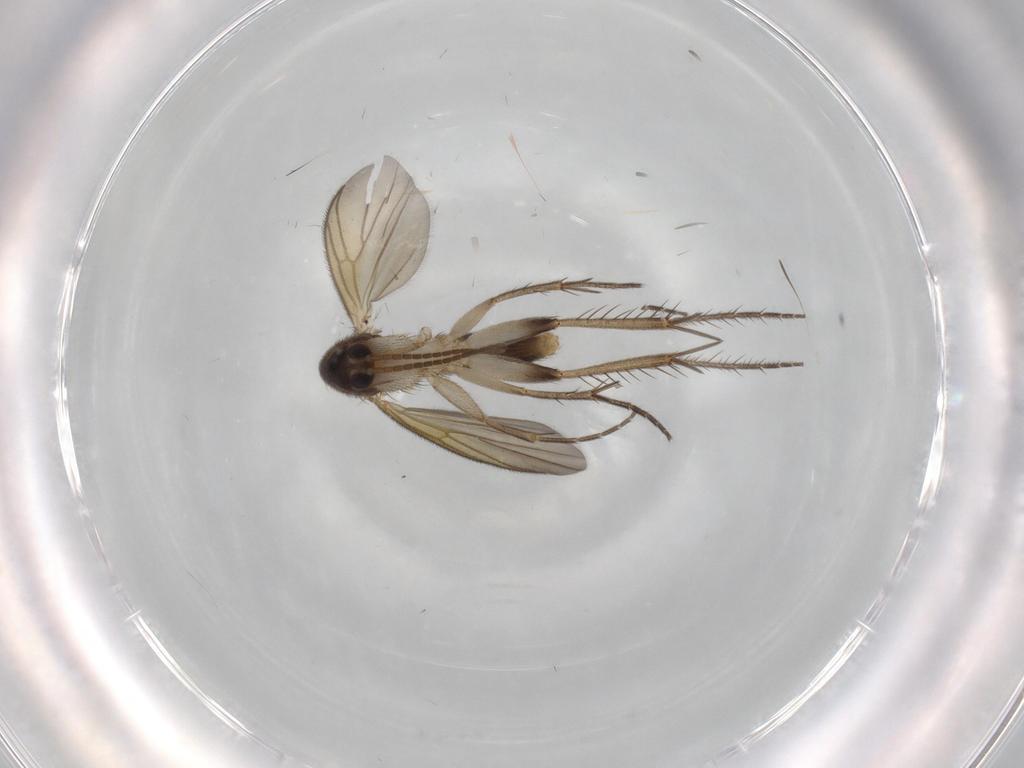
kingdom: Animalia
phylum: Arthropoda
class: Insecta
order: Diptera
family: Mycetophilidae
